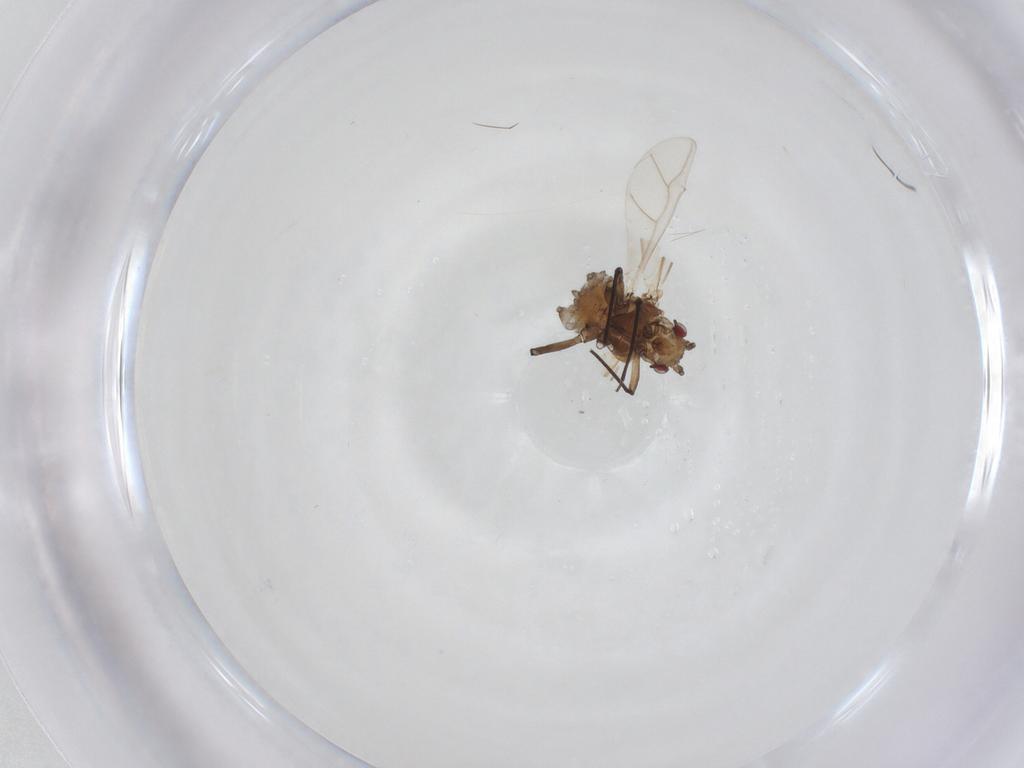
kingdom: Animalia
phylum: Arthropoda
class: Insecta
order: Hemiptera
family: Aphididae
